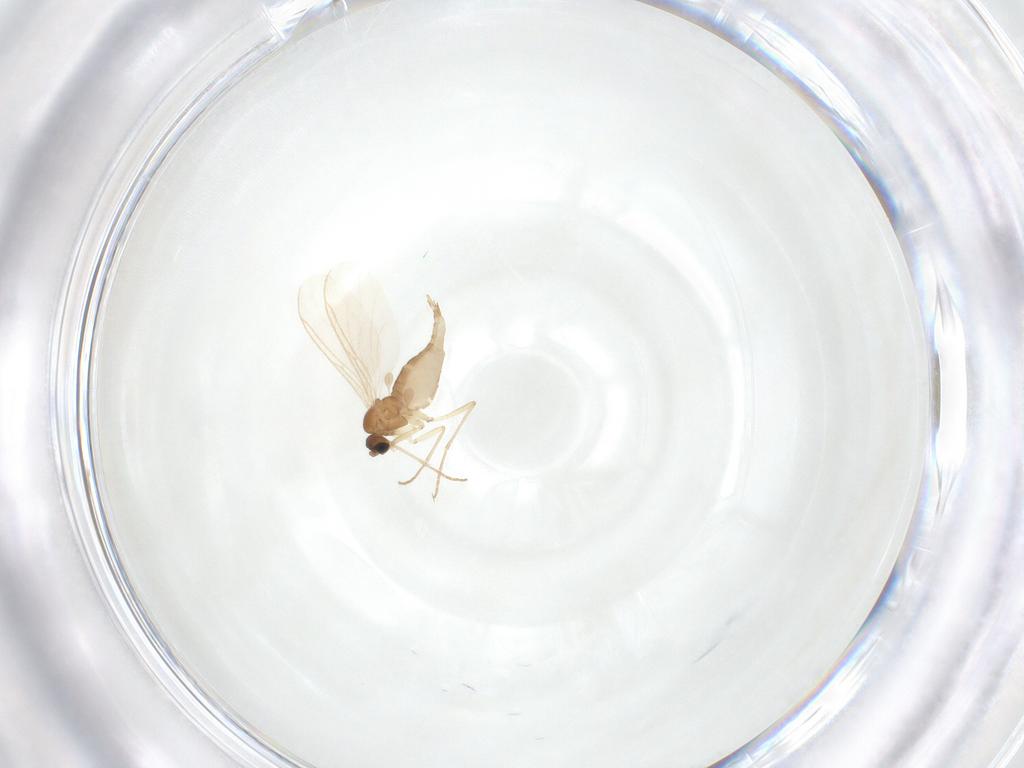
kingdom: Animalia
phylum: Arthropoda
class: Insecta
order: Diptera
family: Sciaridae
